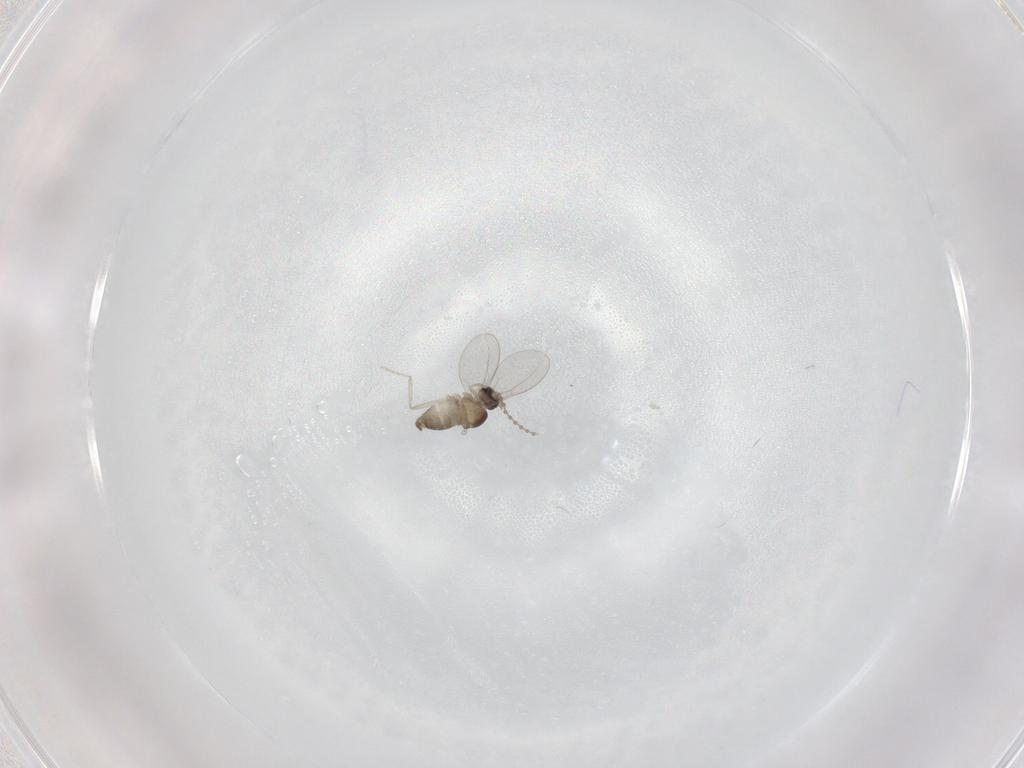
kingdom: Animalia
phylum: Arthropoda
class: Insecta
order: Diptera
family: Cecidomyiidae
